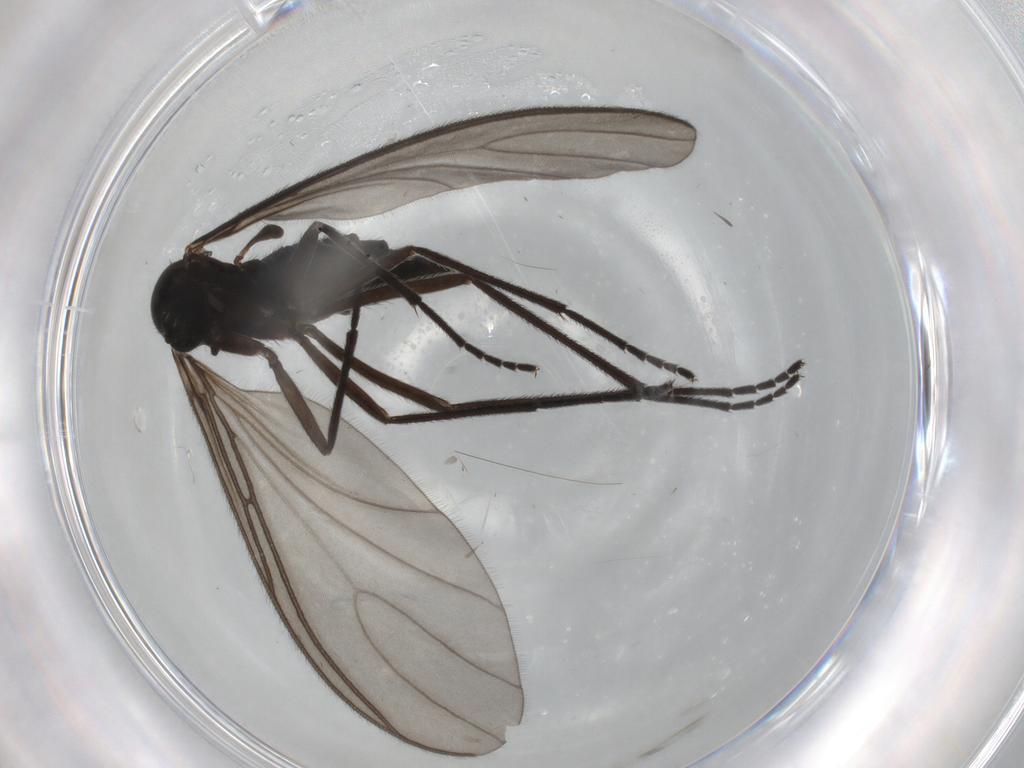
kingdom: Animalia
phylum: Arthropoda
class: Insecta
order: Diptera
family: Sciaridae
